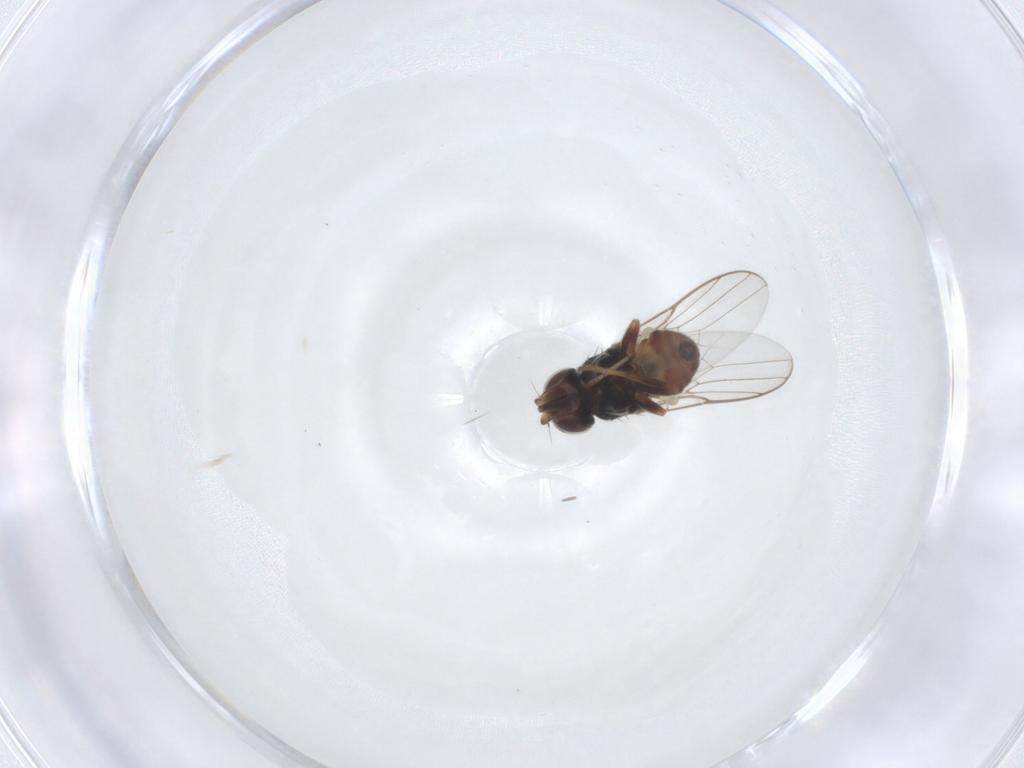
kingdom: Animalia
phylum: Arthropoda
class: Insecta
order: Diptera
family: Chloropidae
